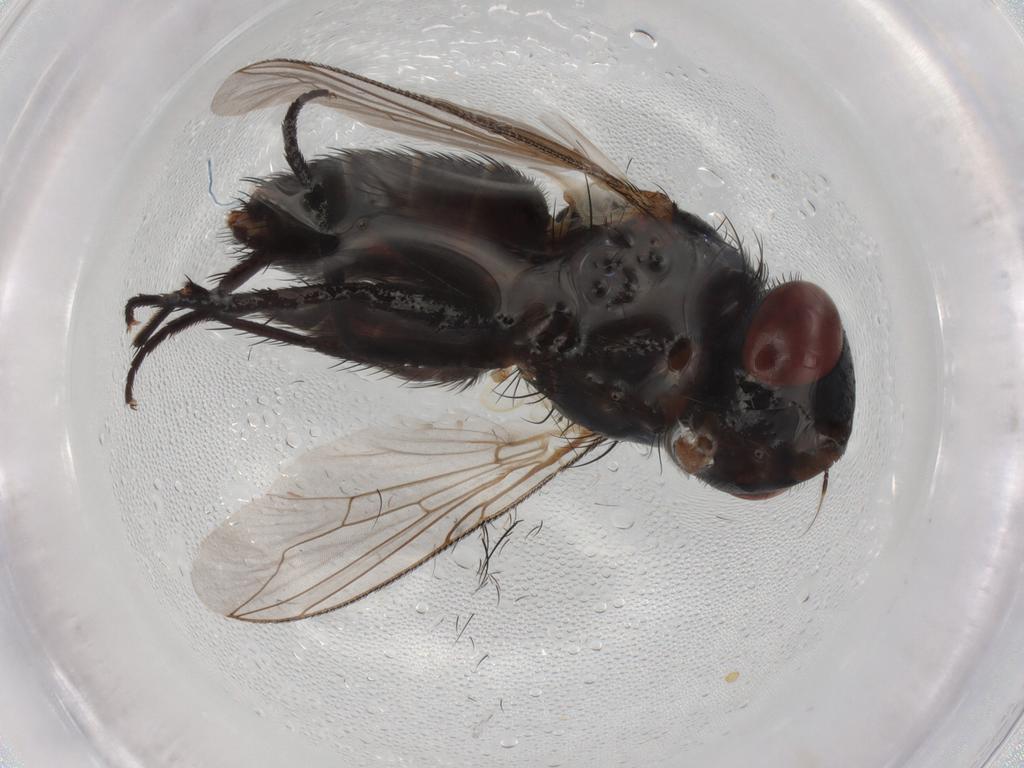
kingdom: Animalia
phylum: Arthropoda
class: Insecta
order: Diptera
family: Sarcophagidae
